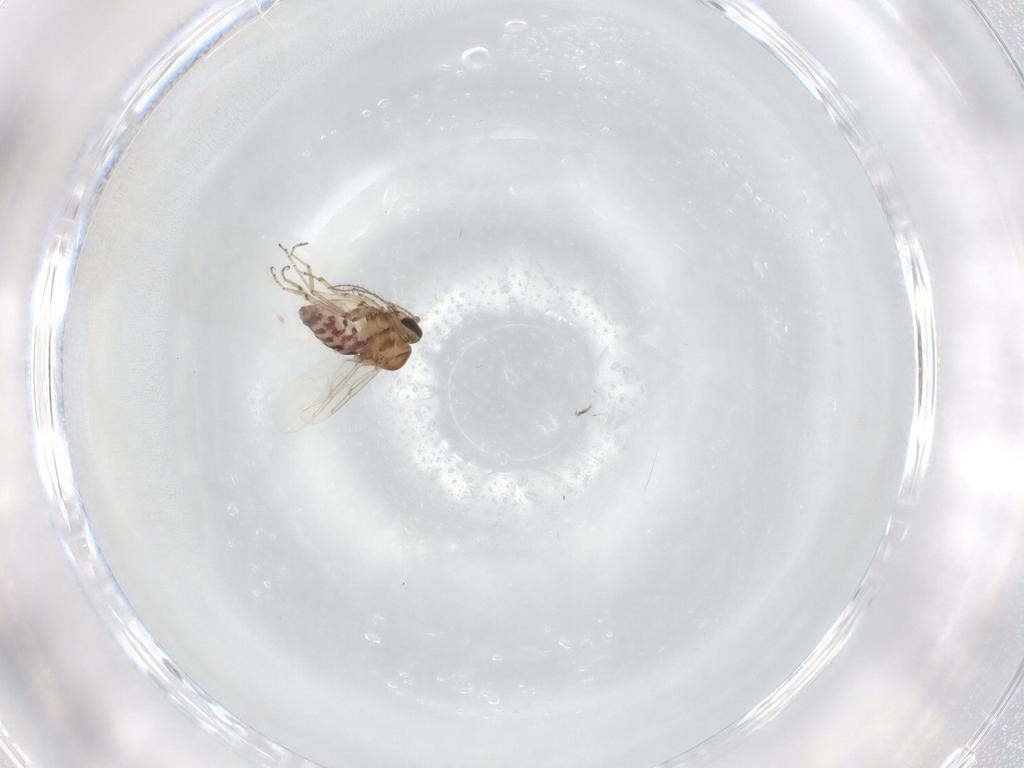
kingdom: Animalia
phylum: Arthropoda
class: Insecta
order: Diptera
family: Ceratopogonidae
